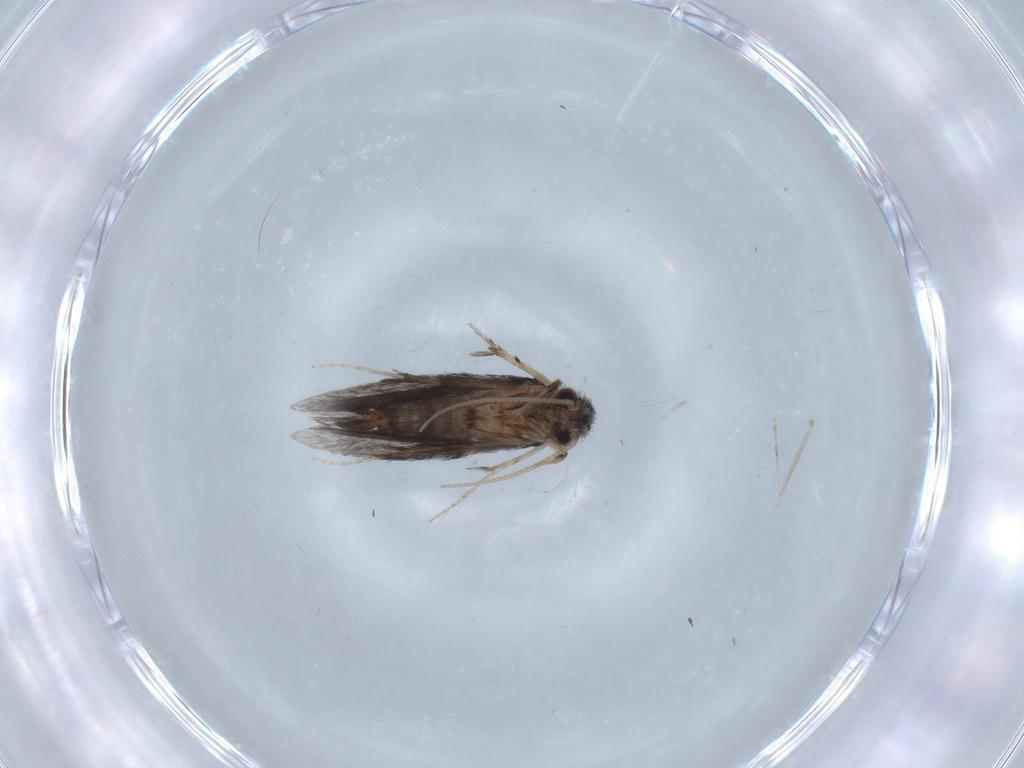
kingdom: Animalia
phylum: Arthropoda
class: Insecta
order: Trichoptera
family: Hydroptilidae
